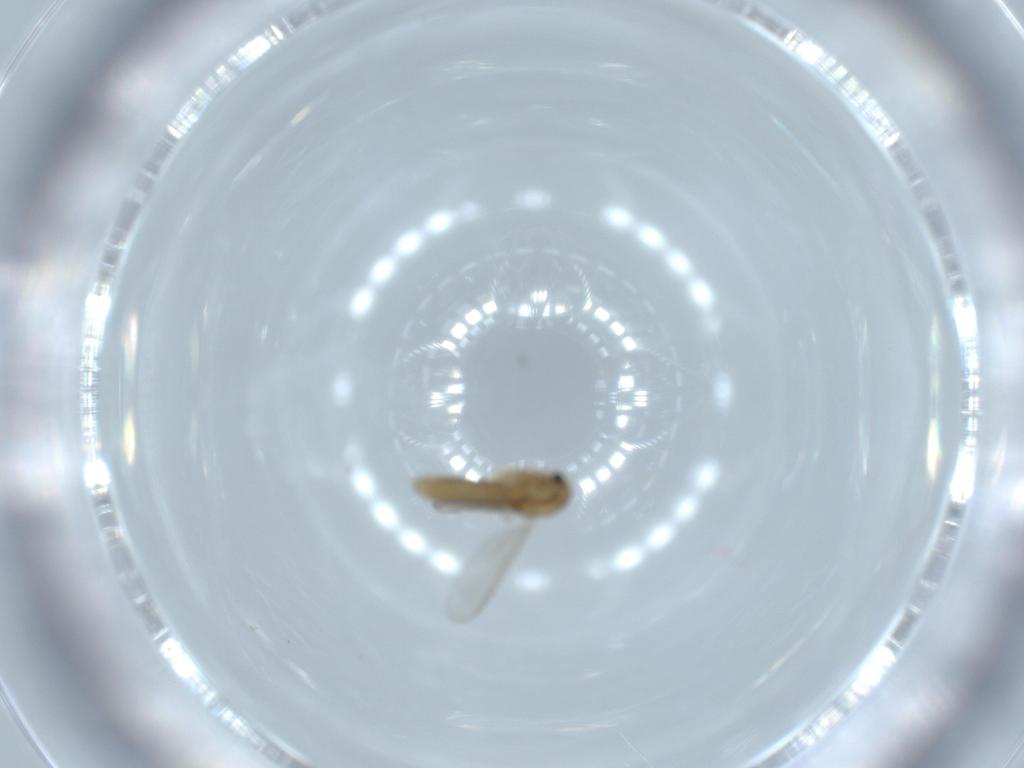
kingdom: Animalia
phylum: Arthropoda
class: Insecta
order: Diptera
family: Chironomidae
